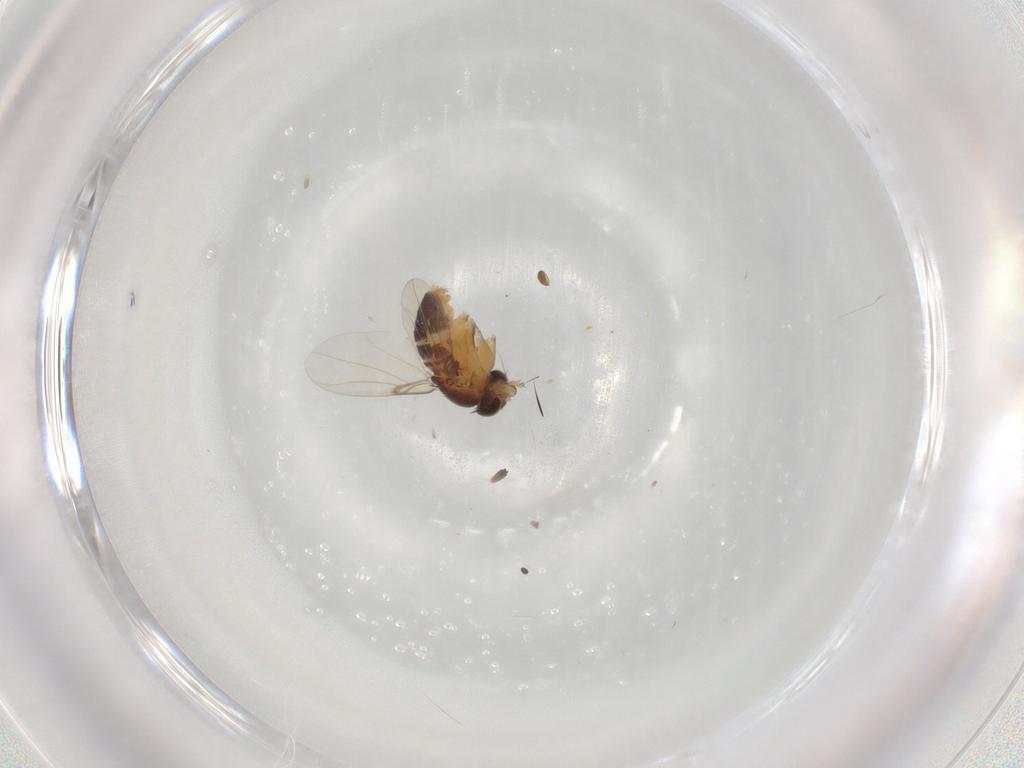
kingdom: Animalia
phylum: Arthropoda
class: Insecta
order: Diptera
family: Phoridae
